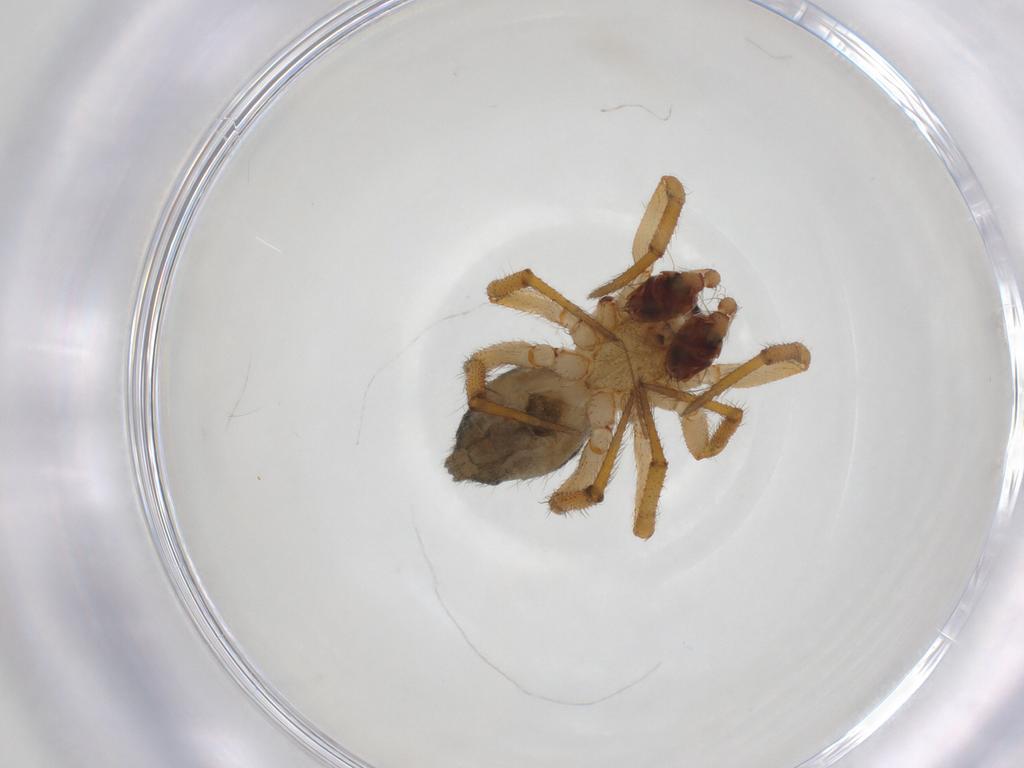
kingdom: Animalia
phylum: Arthropoda
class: Arachnida
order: Araneae
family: Theridiidae
